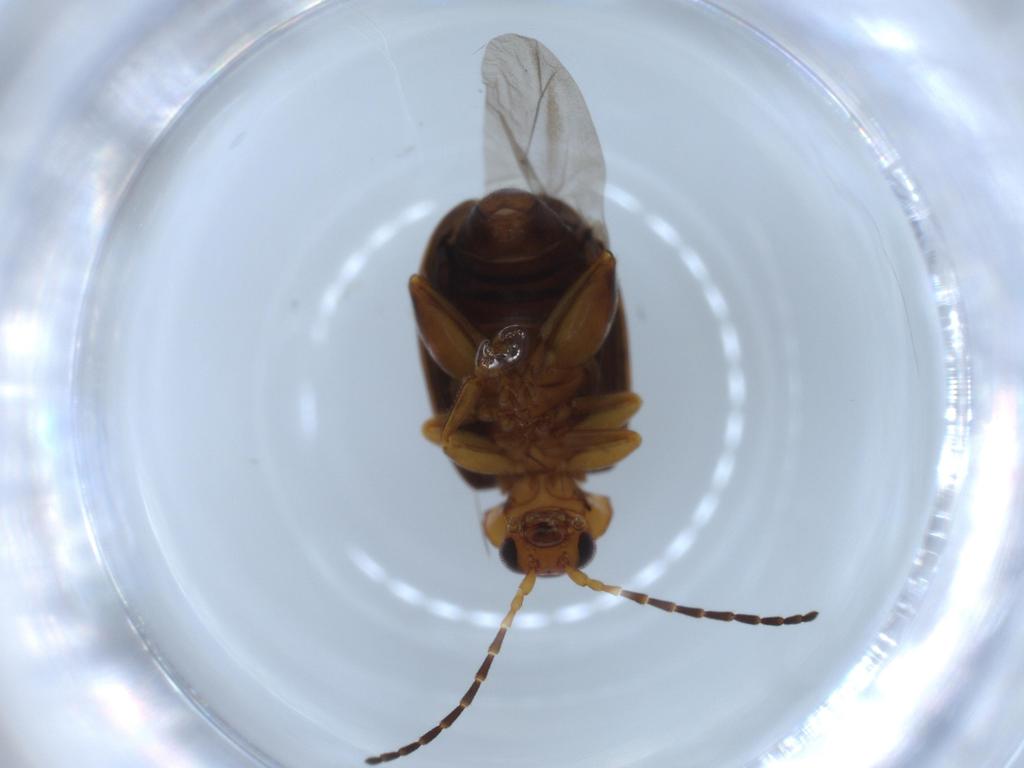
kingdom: Animalia
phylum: Arthropoda
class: Insecta
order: Coleoptera
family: Chrysomelidae
